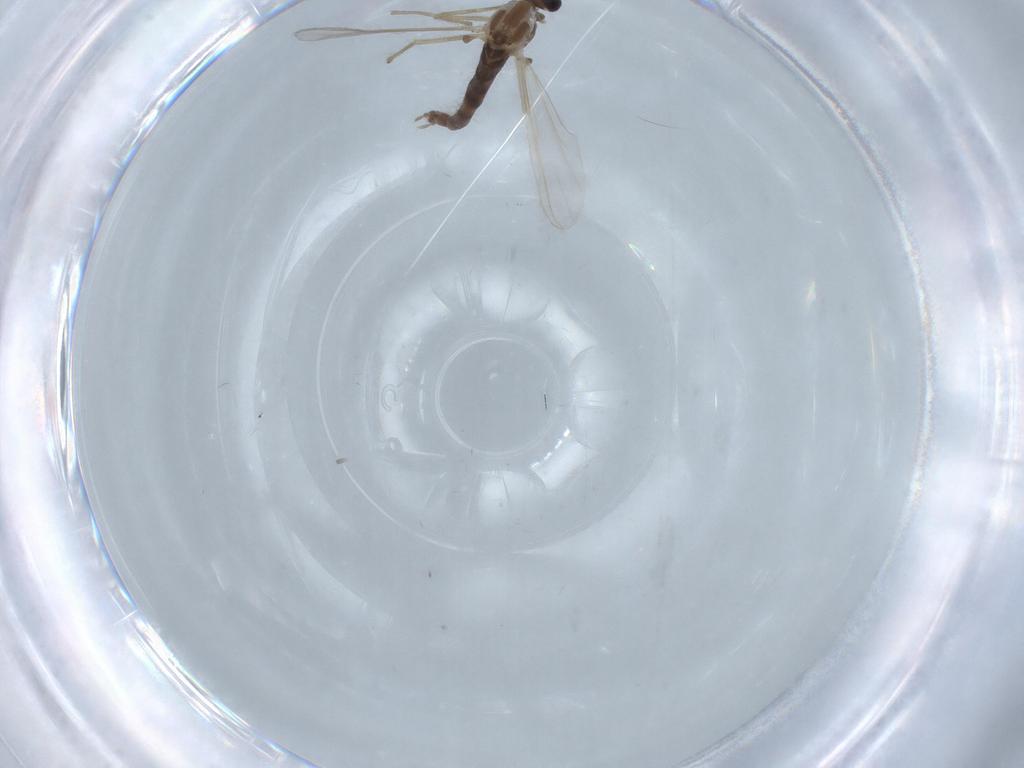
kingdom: Animalia
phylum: Arthropoda
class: Insecta
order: Diptera
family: Chironomidae
